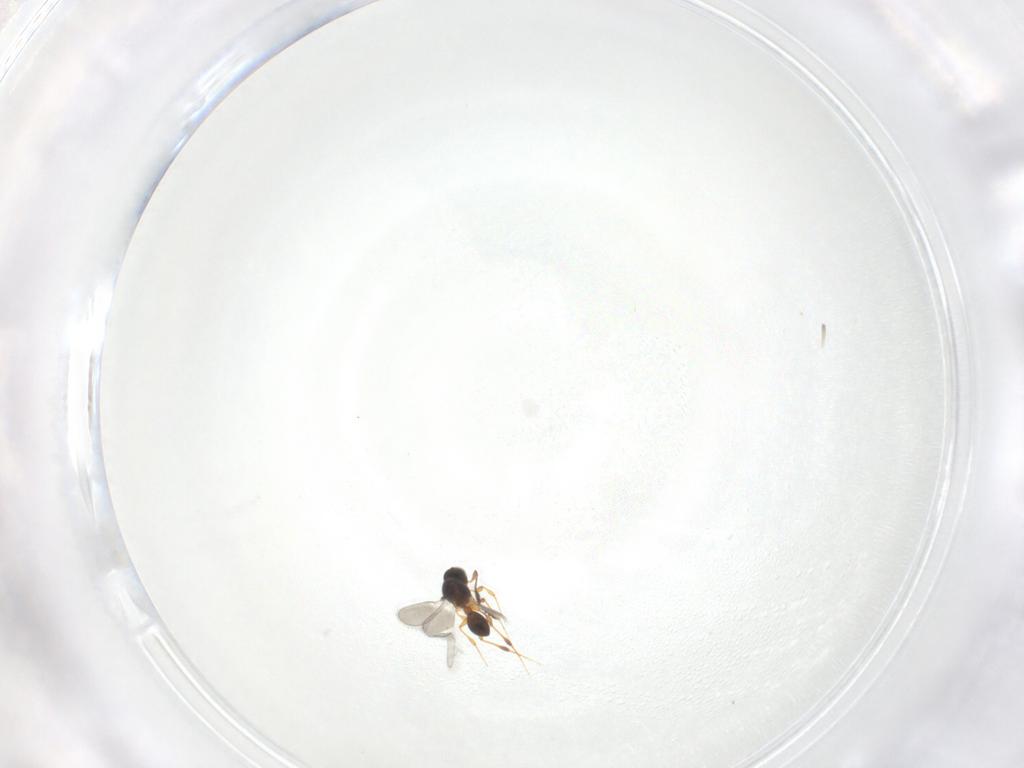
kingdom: Animalia
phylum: Arthropoda
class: Insecta
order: Hymenoptera
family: Platygastridae
